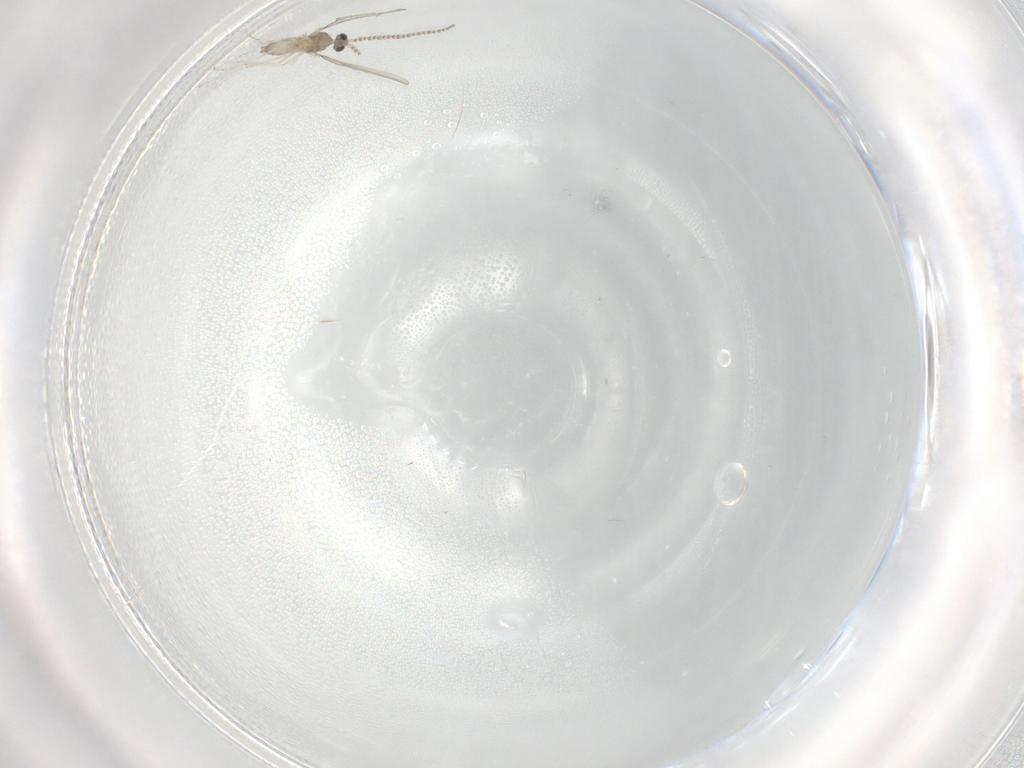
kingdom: Animalia
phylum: Arthropoda
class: Insecta
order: Diptera
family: Cecidomyiidae
